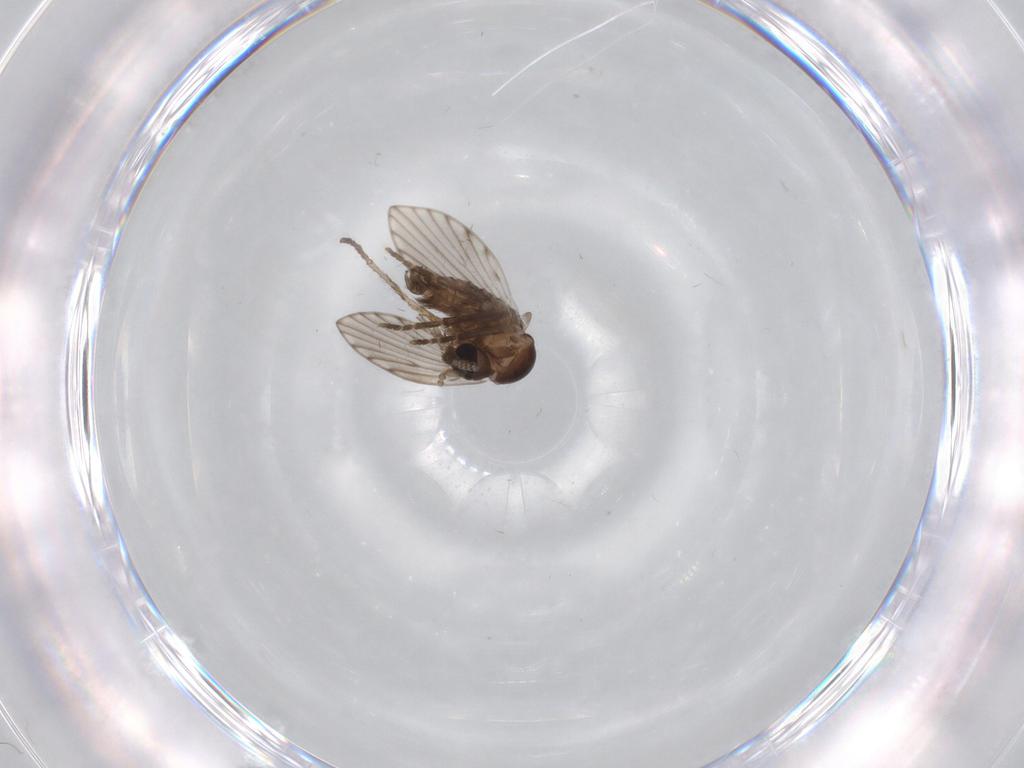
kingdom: Animalia
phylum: Arthropoda
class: Insecta
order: Diptera
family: Psychodidae
